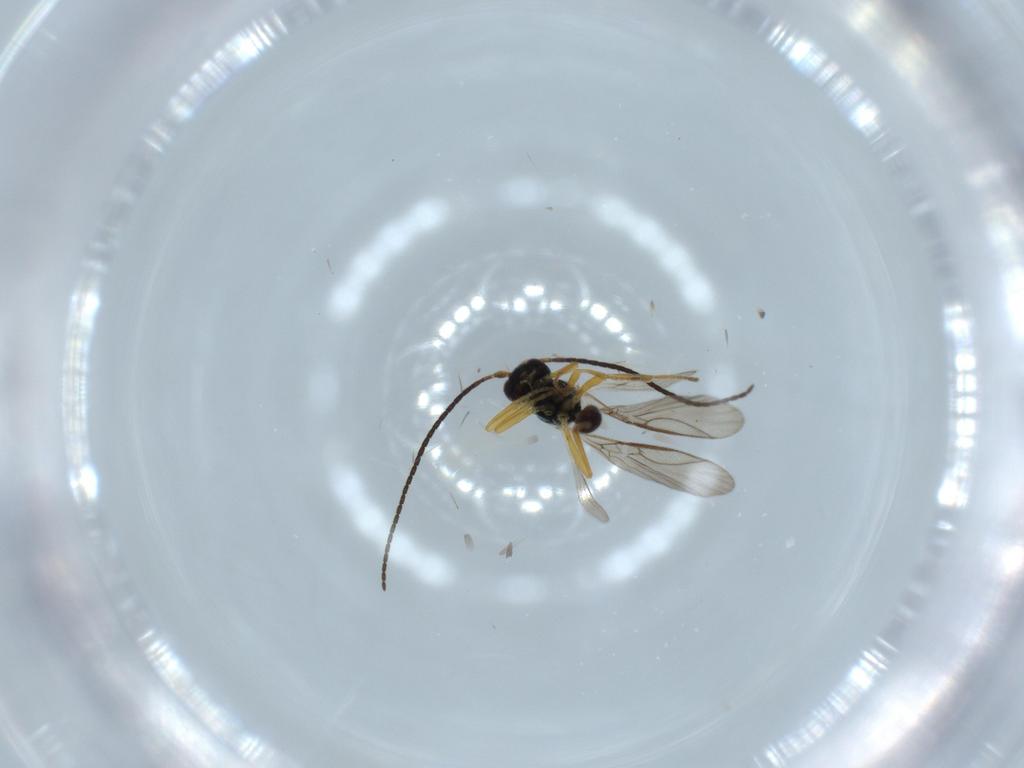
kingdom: Animalia
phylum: Arthropoda
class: Insecta
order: Hymenoptera
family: Braconidae
